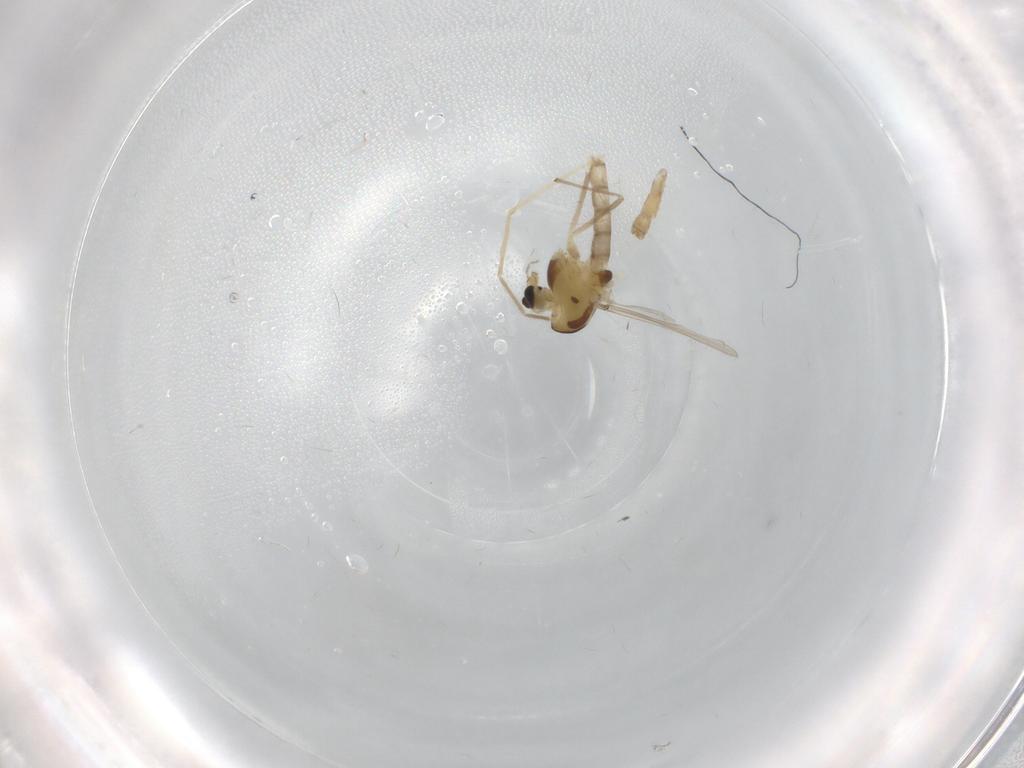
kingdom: Animalia
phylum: Arthropoda
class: Insecta
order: Diptera
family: Chironomidae
